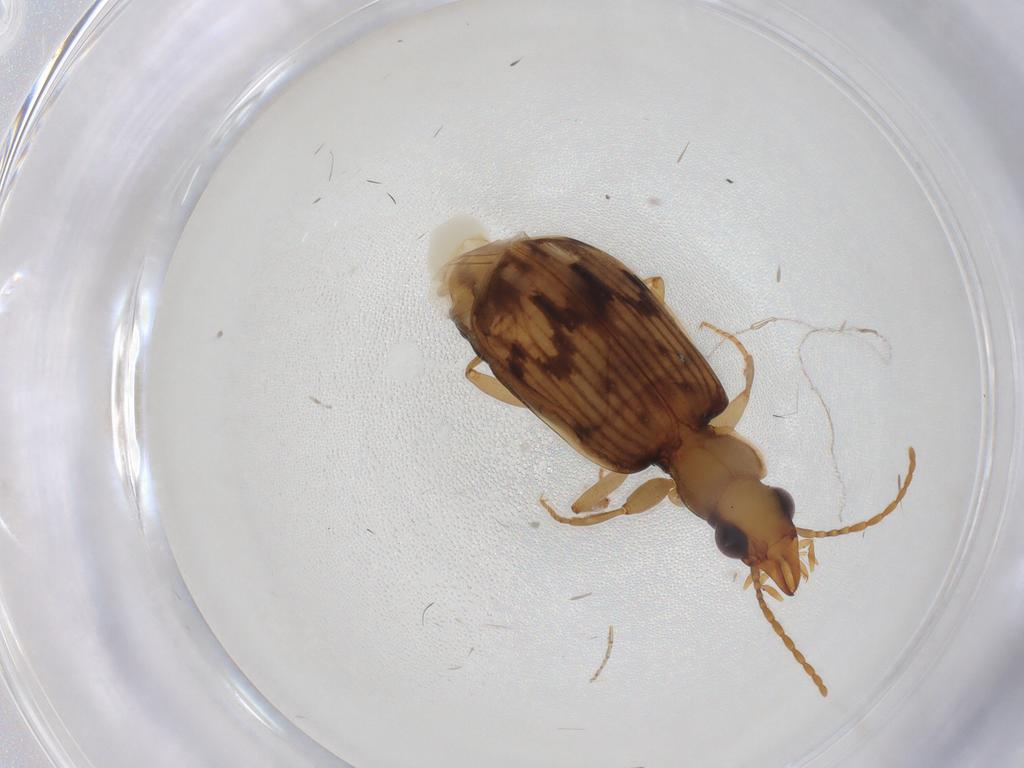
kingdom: Animalia
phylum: Arthropoda
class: Insecta
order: Coleoptera
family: Carabidae
